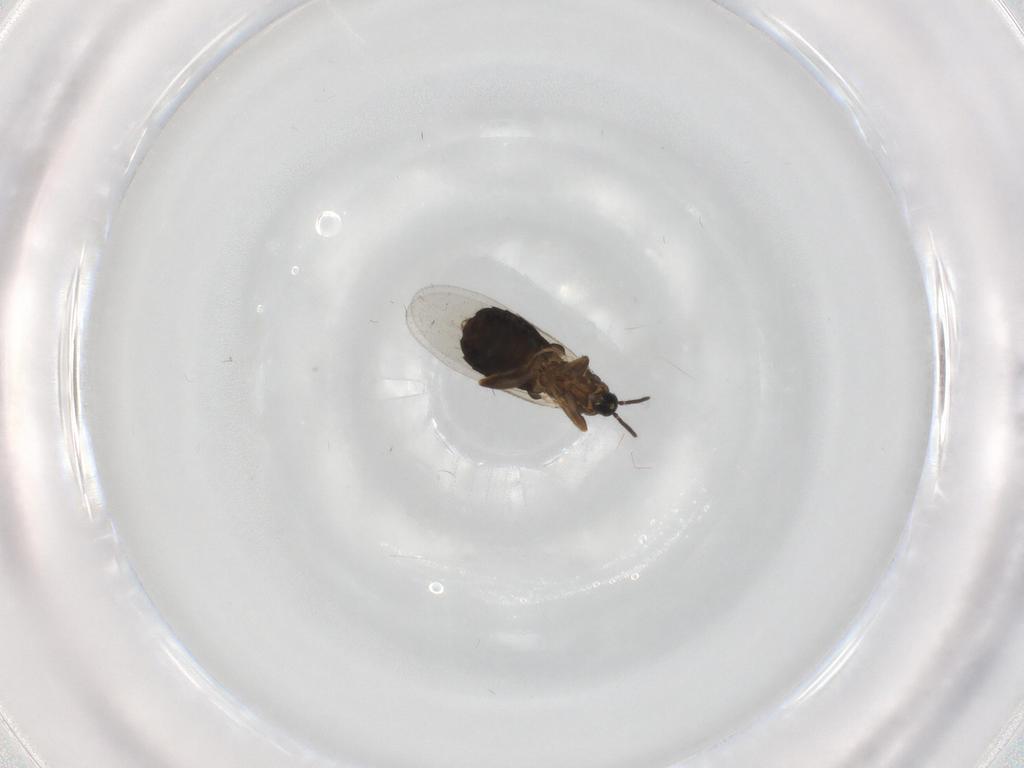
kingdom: Animalia
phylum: Arthropoda
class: Insecta
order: Diptera
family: Scatopsidae
